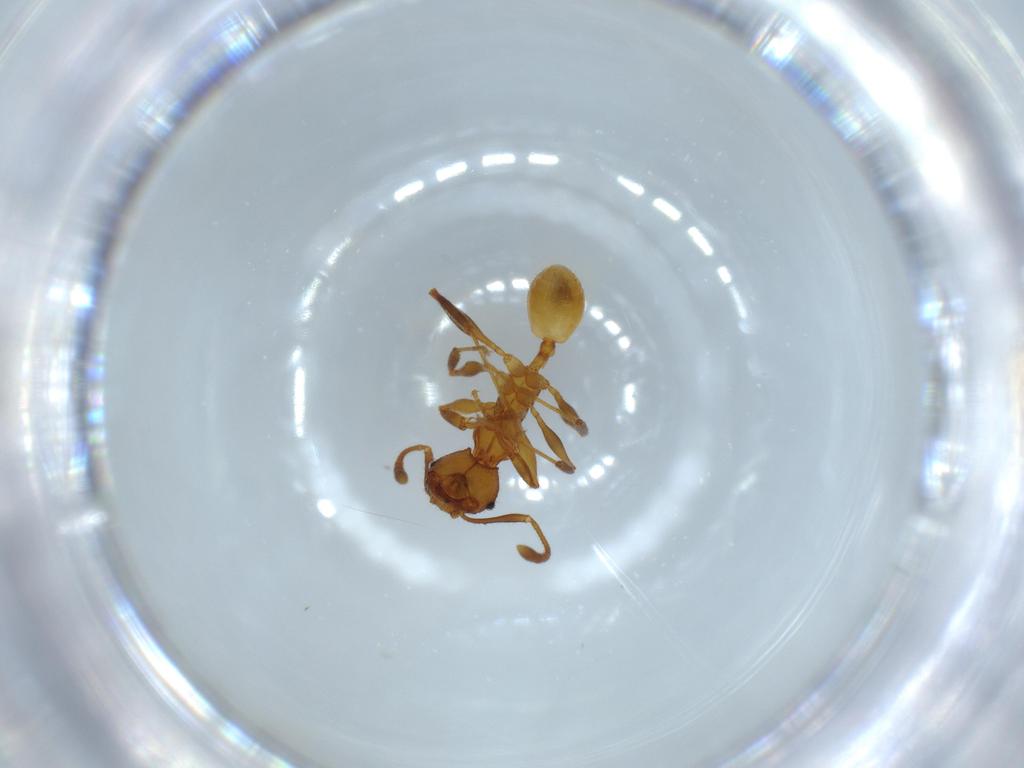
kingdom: Animalia
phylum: Arthropoda
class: Insecta
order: Hymenoptera
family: Formicidae
